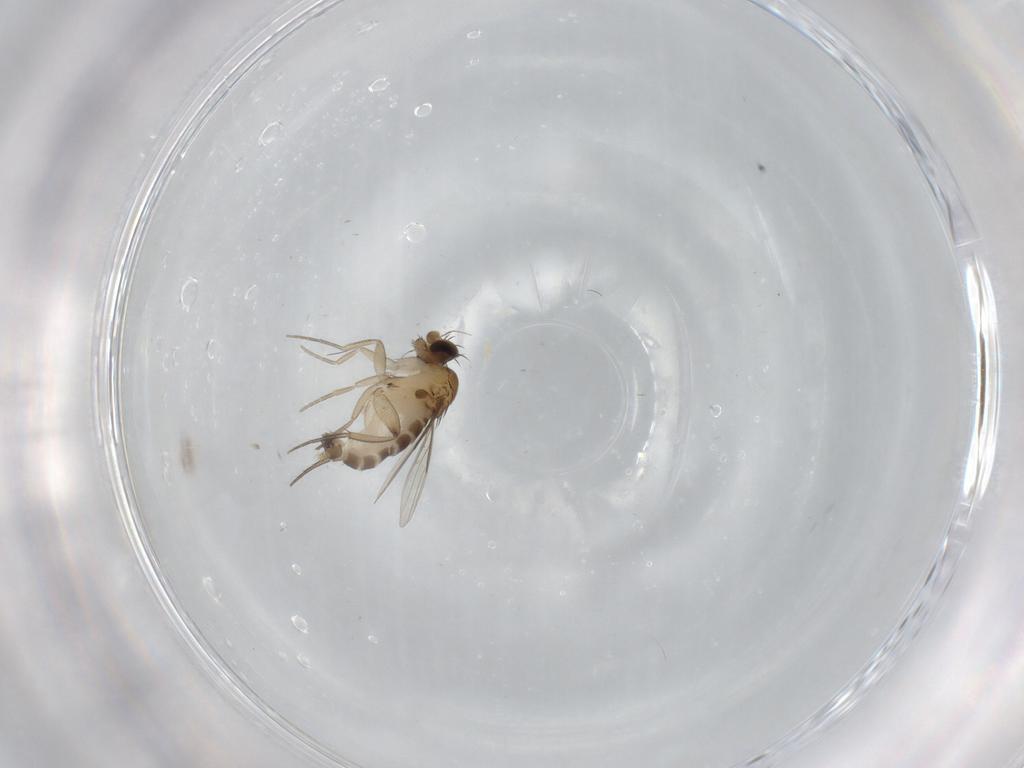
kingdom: Animalia
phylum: Arthropoda
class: Insecta
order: Diptera
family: Phoridae
